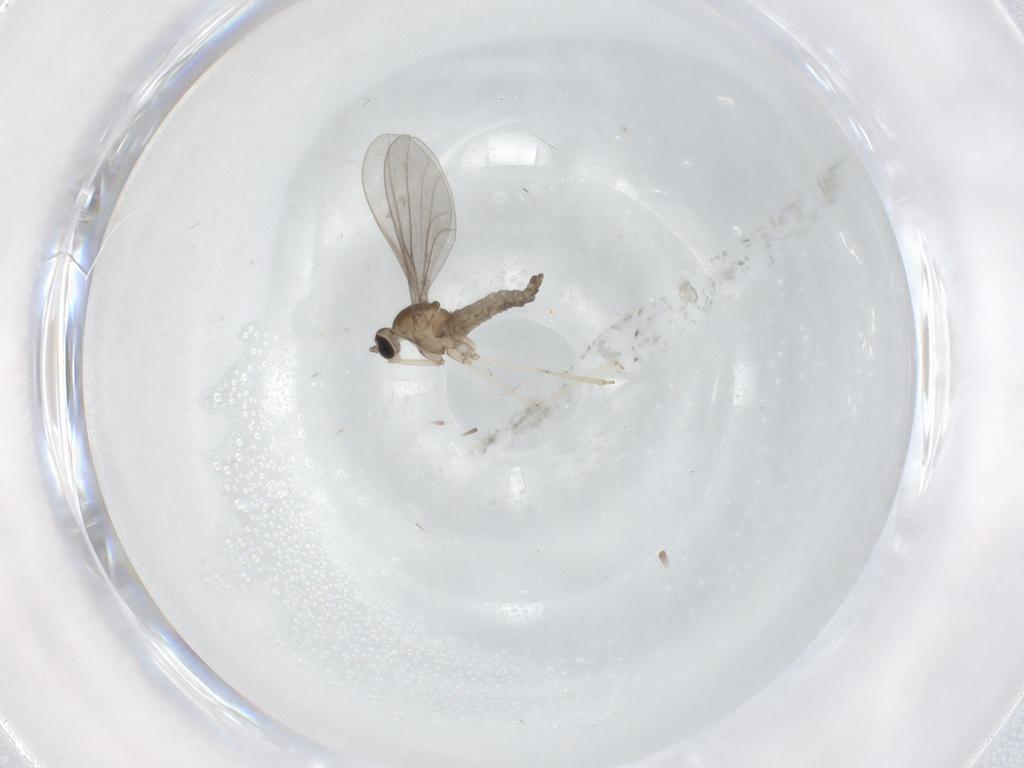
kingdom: Animalia
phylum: Arthropoda
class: Insecta
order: Diptera
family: Cecidomyiidae
